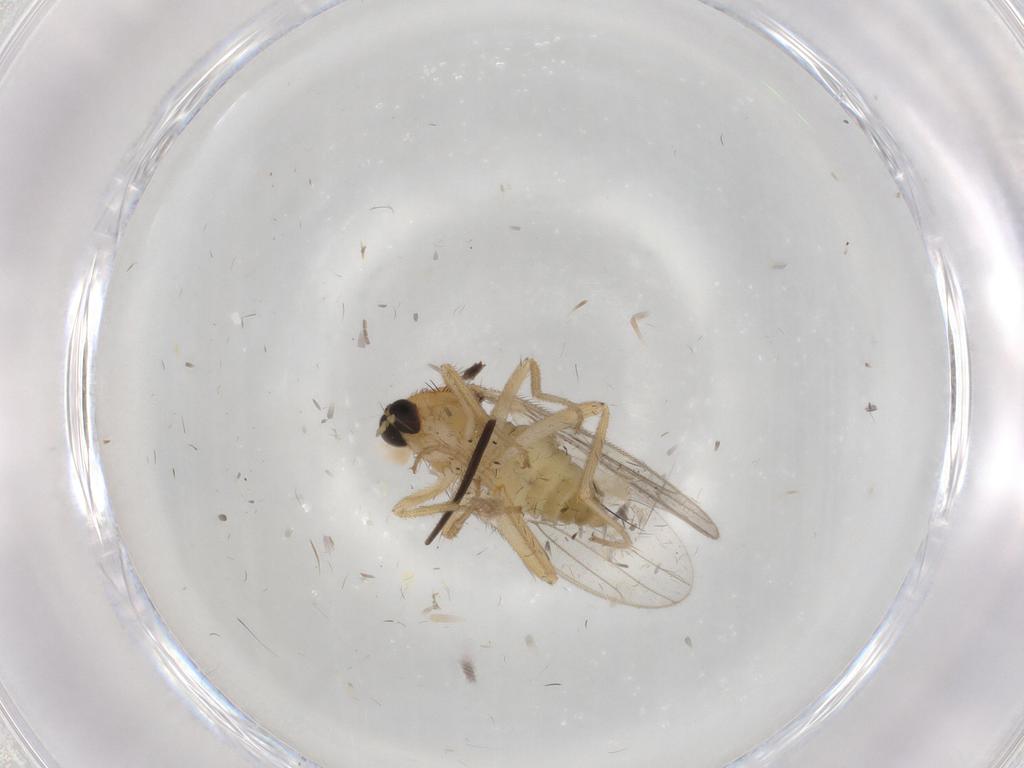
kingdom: Animalia
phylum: Arthropoda
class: Insecta
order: Diptera
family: Hybotidae
